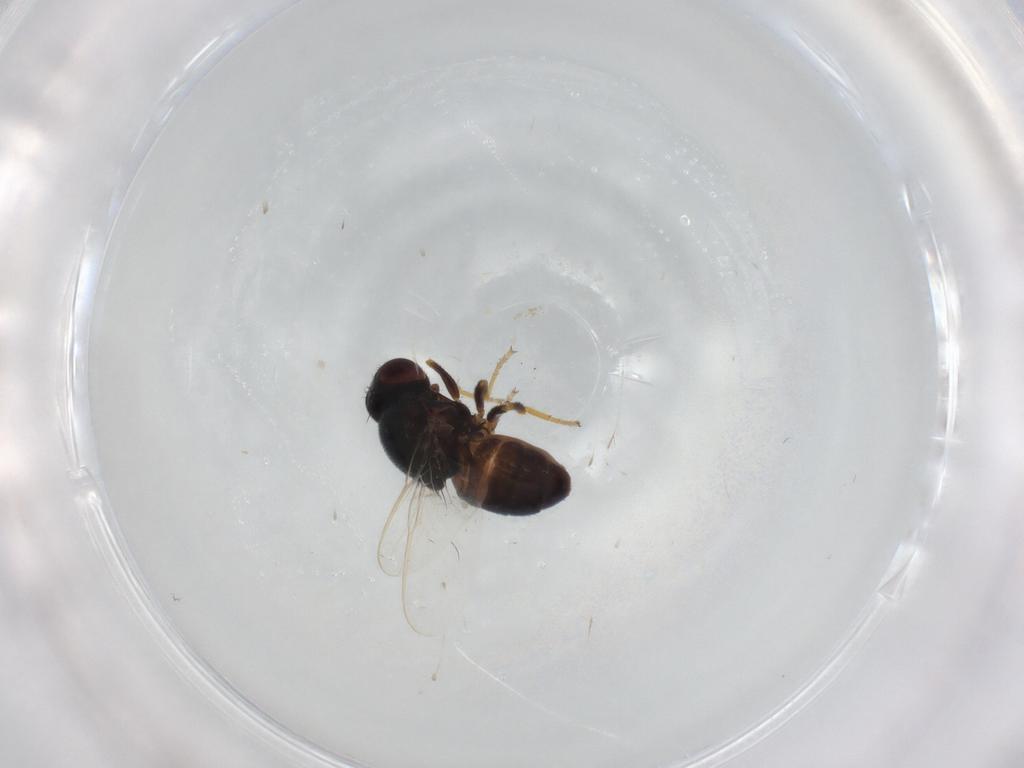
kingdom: Animalia
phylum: Arthropoda
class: Insecta
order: Diptera
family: Chloropidae
